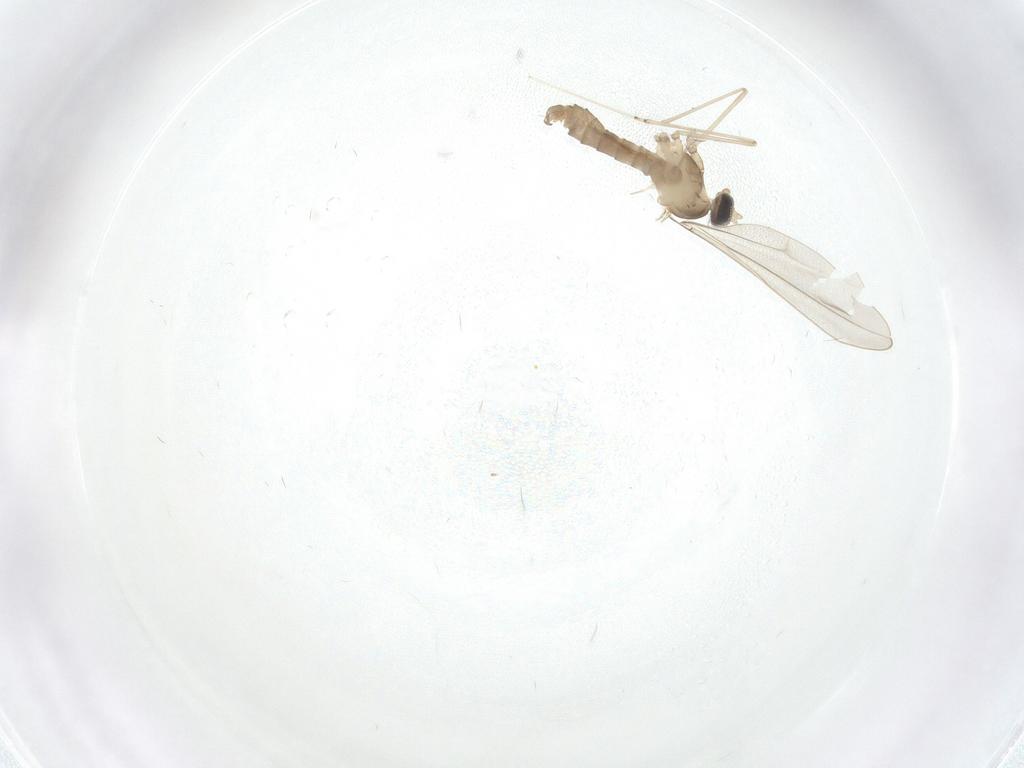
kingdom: Animalia
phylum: Arthropoda
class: Insecta
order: Diptera
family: Cecidomyiidae
